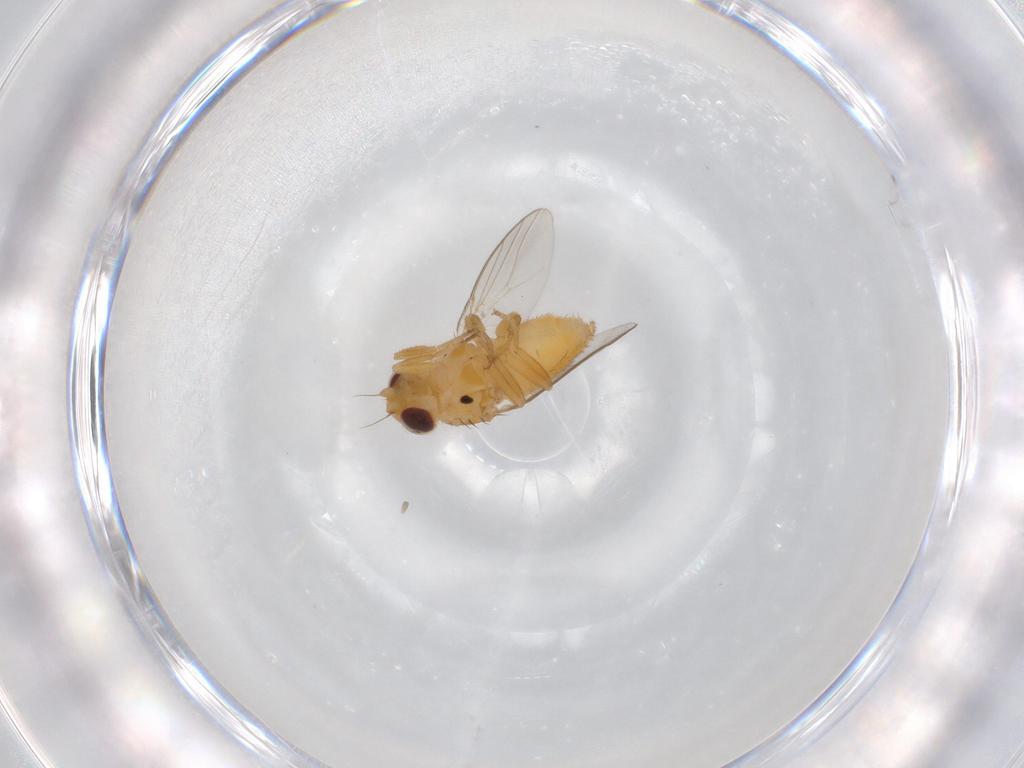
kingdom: Animalia
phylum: Arthropoda
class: Insecta
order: Diptera
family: Chloropidae
